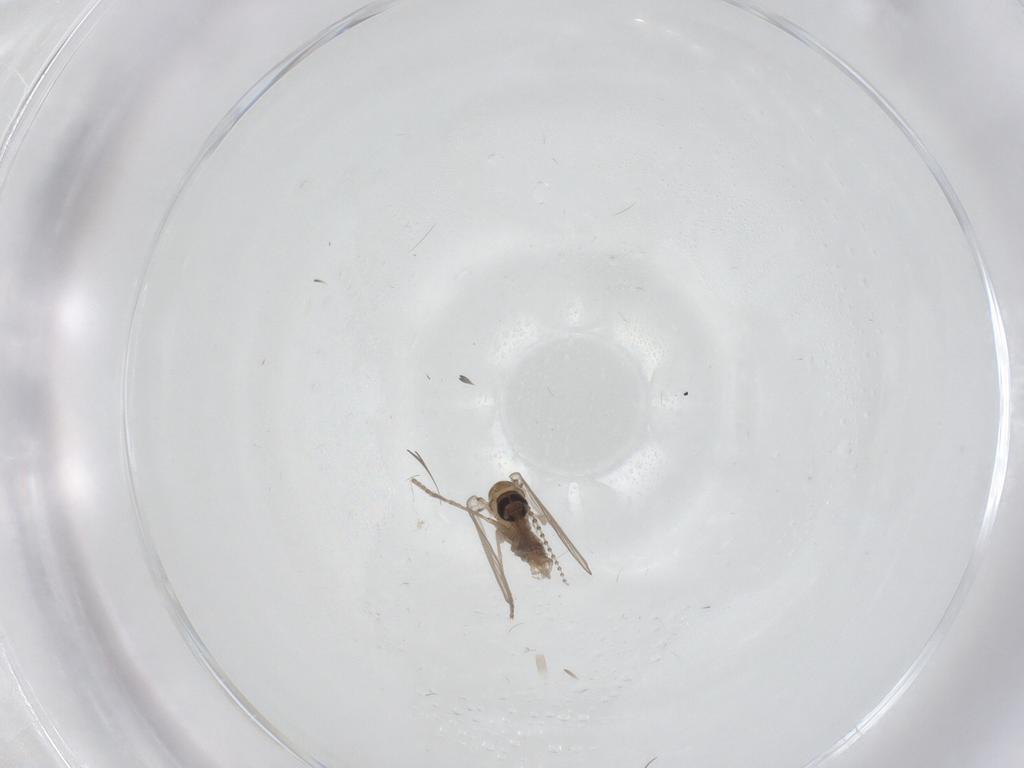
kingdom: Animalia
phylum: Arthropoda
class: Insecta
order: Diptera
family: Psychodidae
